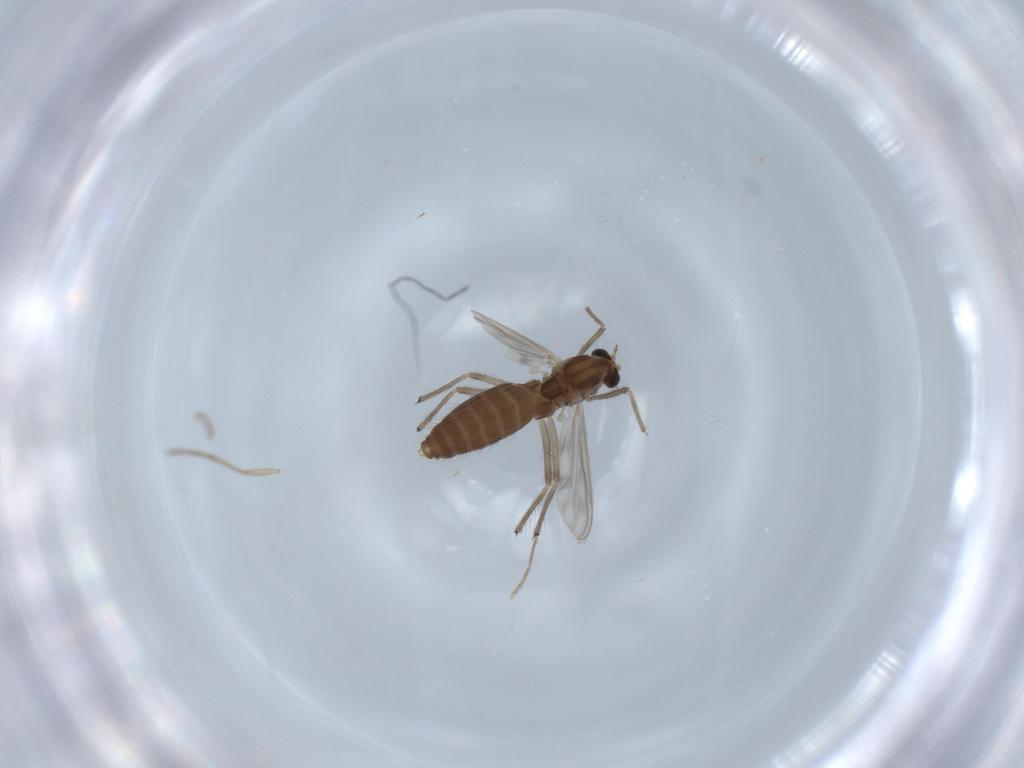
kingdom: Animalia
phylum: Arthropoda
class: Insecta
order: Diptera
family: Chironomidae
